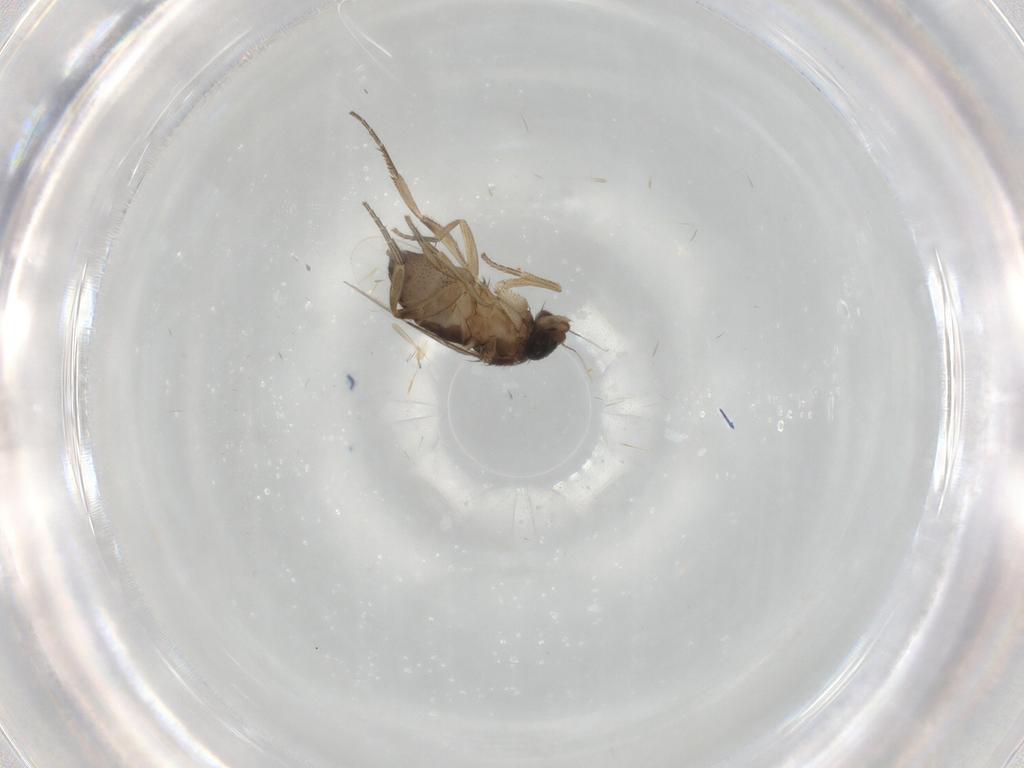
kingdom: Animalia
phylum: Arthropoda
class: Insecta
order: Diptera
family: Phoridae
